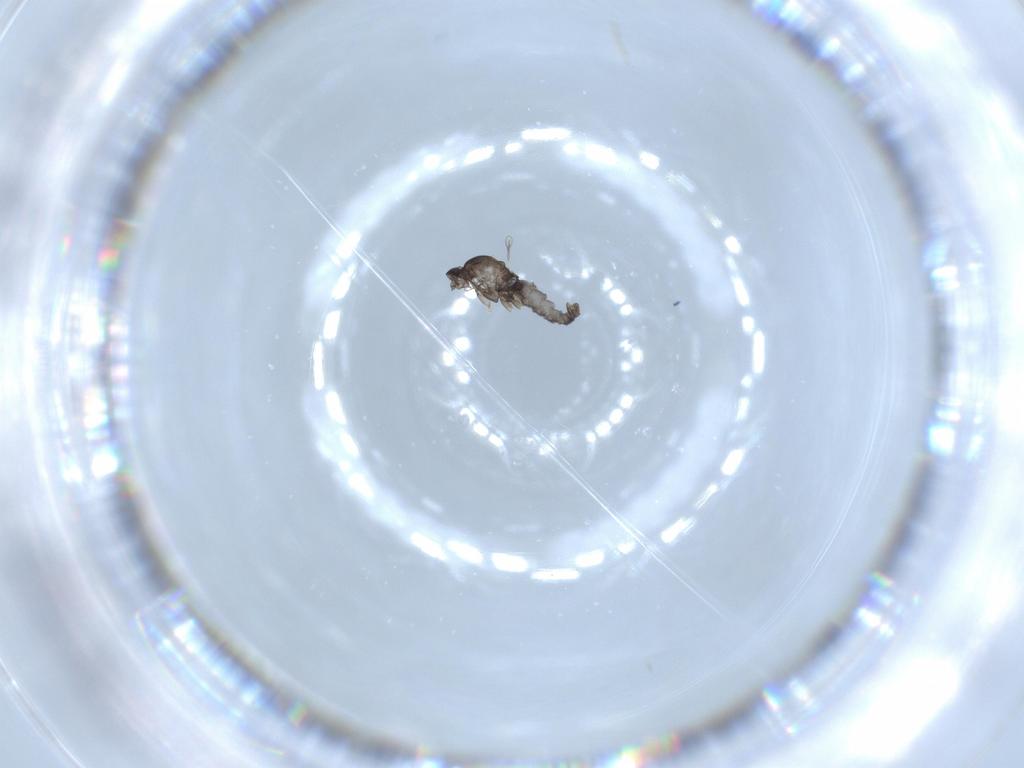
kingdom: Animalia
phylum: Arthropoda
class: Insecta
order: Diptera
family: Cecidomyiidae
